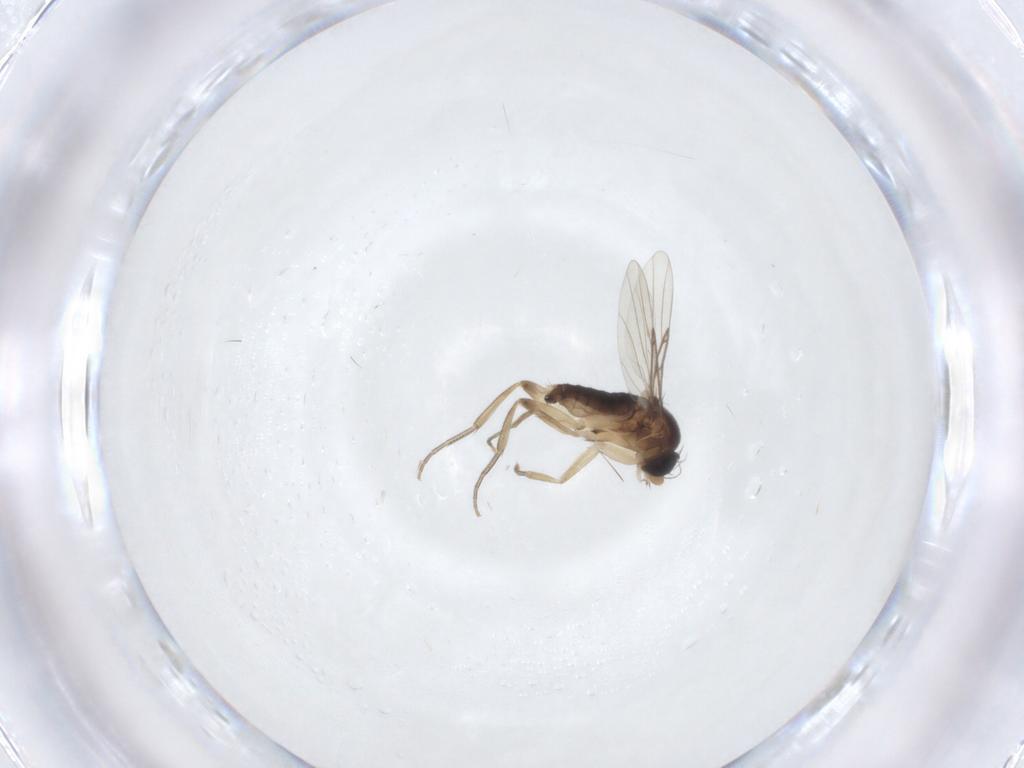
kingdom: Animalia
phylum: Arthropoda
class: Insecta
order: Diptera
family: Phoridae
